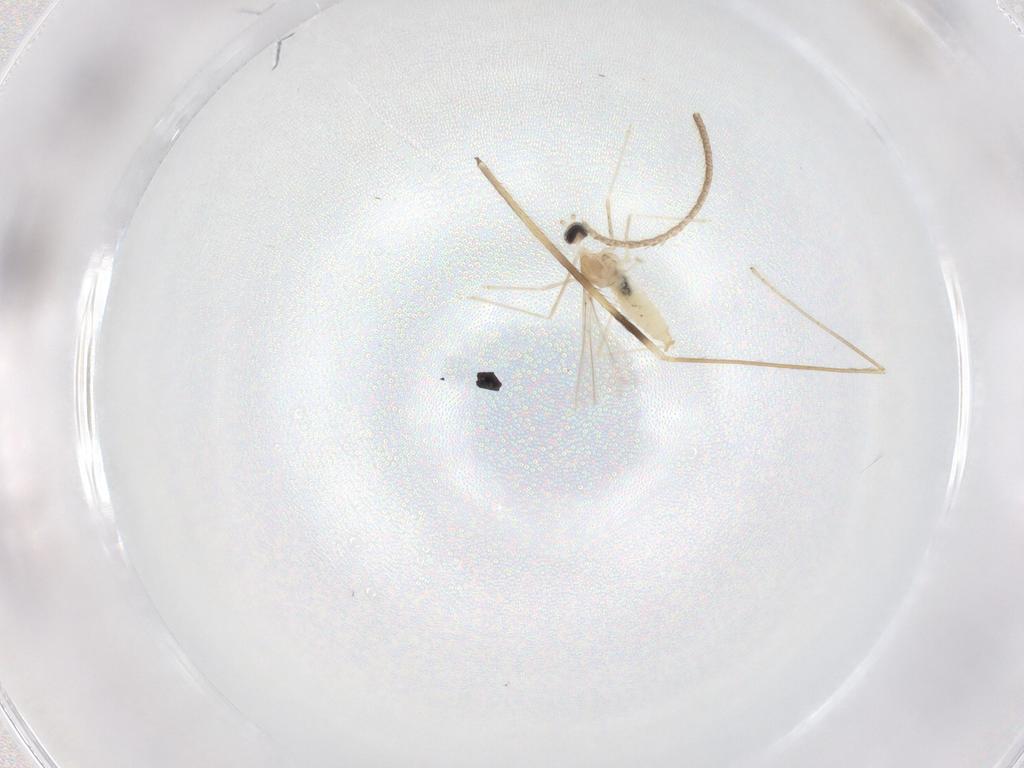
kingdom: Animalia
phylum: Arthropoda
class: Insecta
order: Diptera
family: Cecidomyiidae
